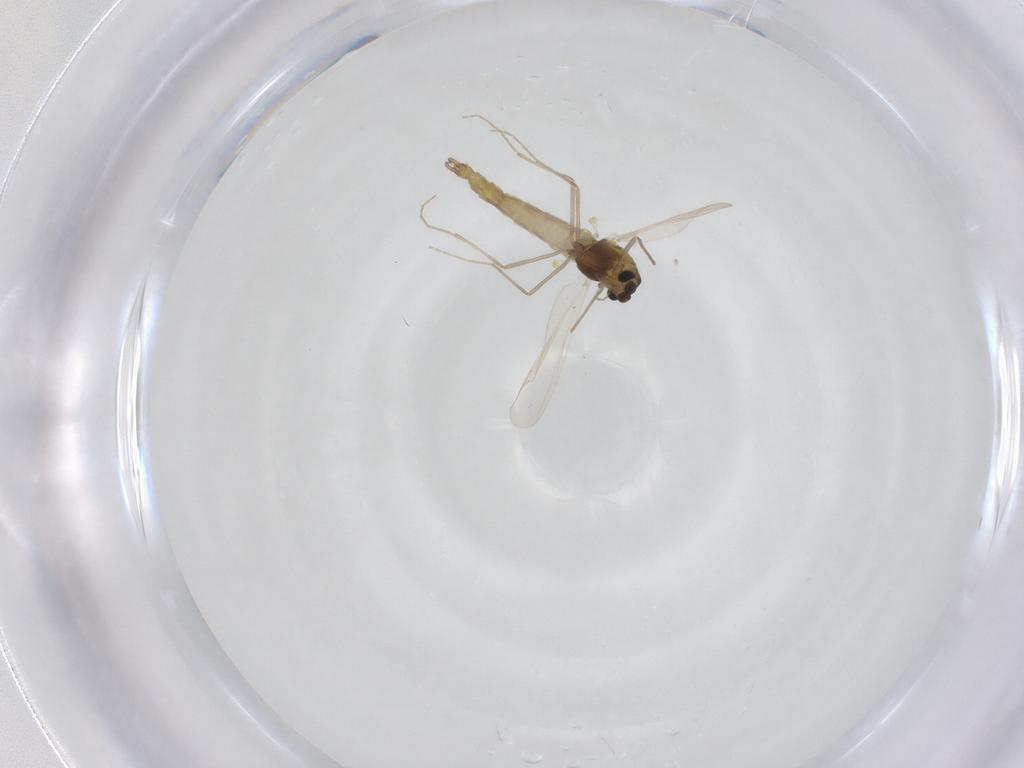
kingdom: Animalia
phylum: Arthropoda
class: Insecta
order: Diptera
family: Chironomidae
